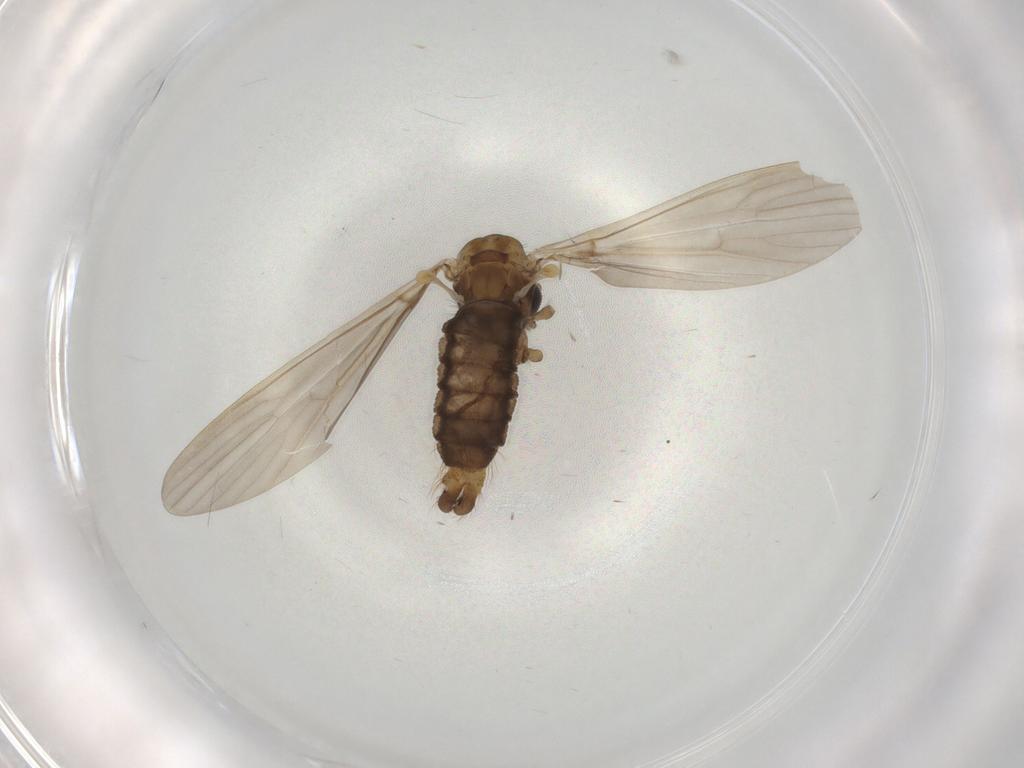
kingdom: Animalia
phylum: Arthropoda
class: Insecta
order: Diptera
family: Limoniidae
